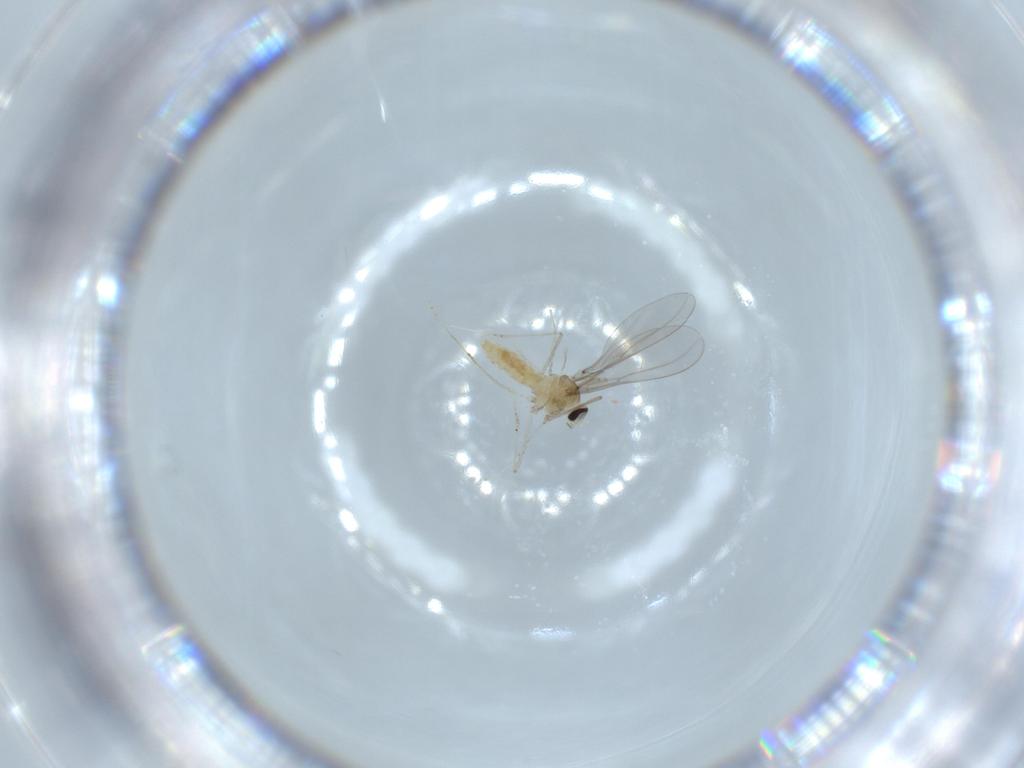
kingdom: Animalia
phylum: Arthropoda
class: Insecta
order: Diptera
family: Cecidomyiidae
